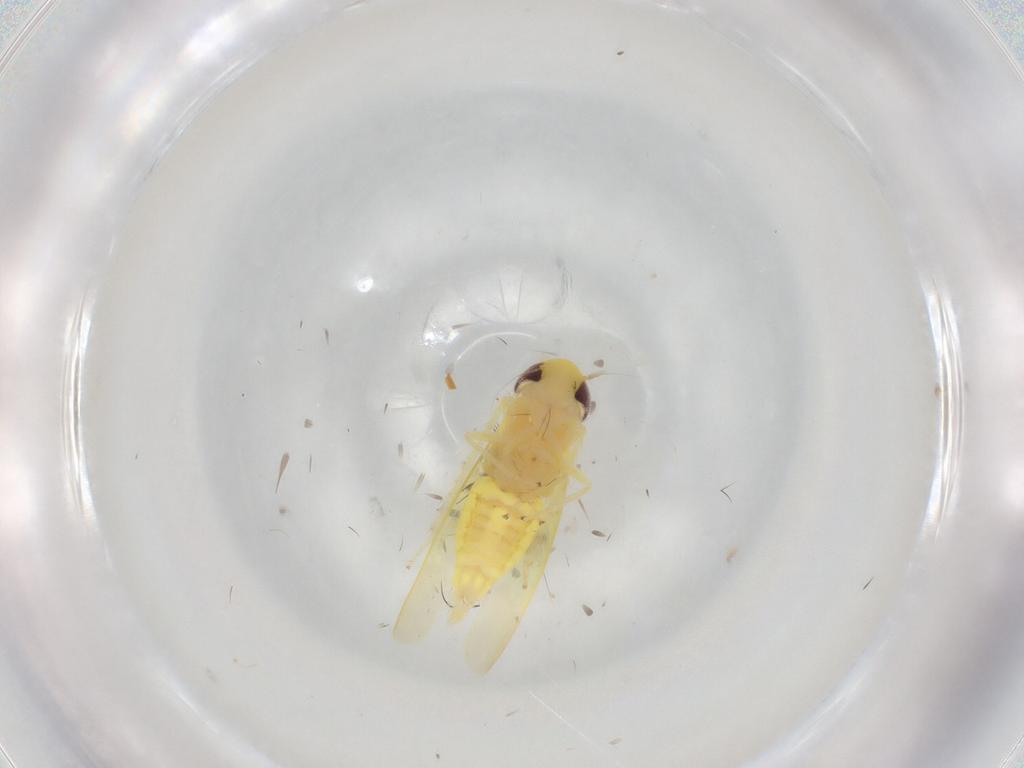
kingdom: Animalia
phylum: Arthropoda
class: Insecta
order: Hemiptera
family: Cicadellidae
